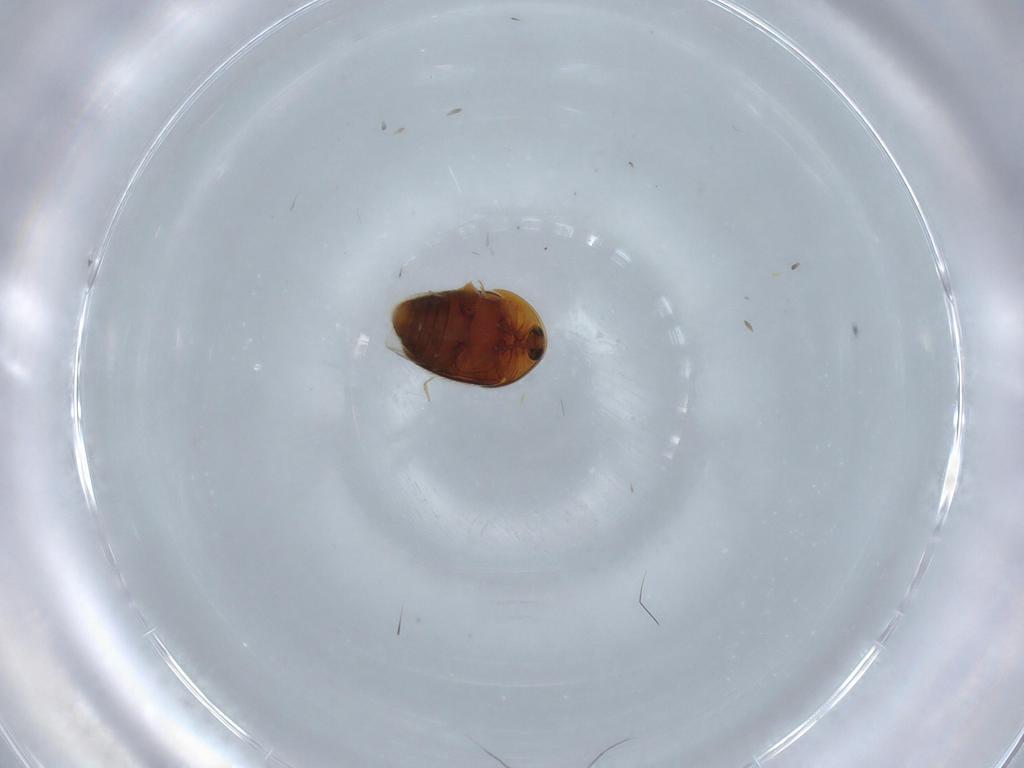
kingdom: Animalia
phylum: Arthropoda
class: Insecta
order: Coleoptera
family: Corylophidae
